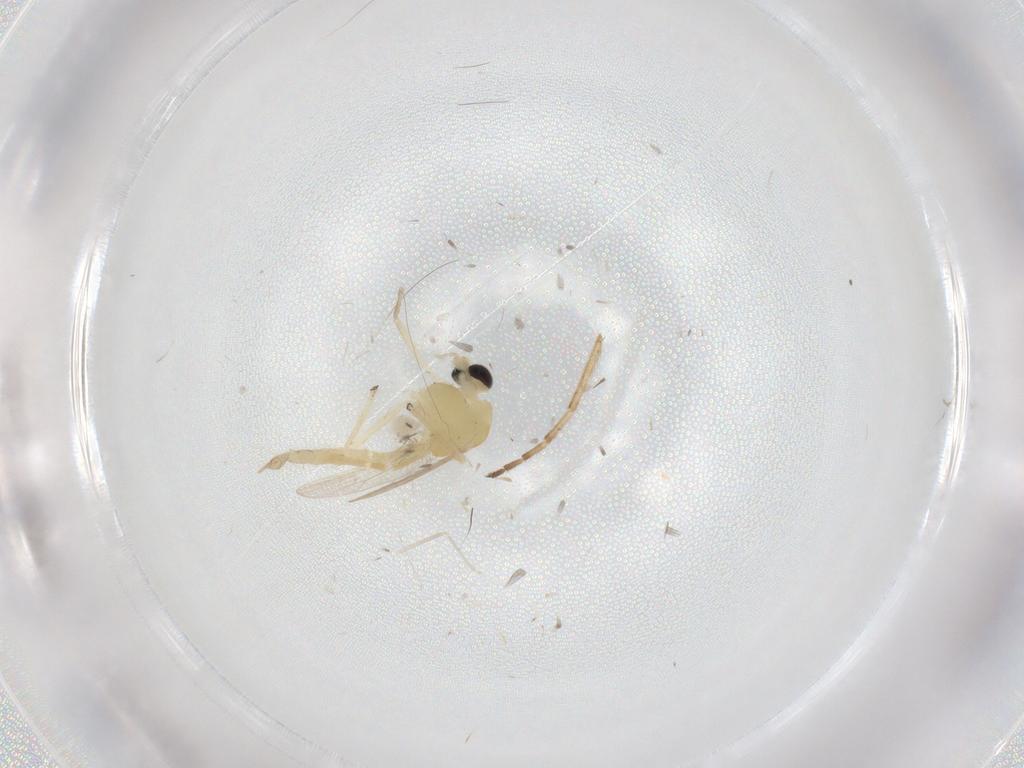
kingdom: Animalia
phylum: Arthropoda
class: Insecta
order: Diptera
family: Chironomidae
